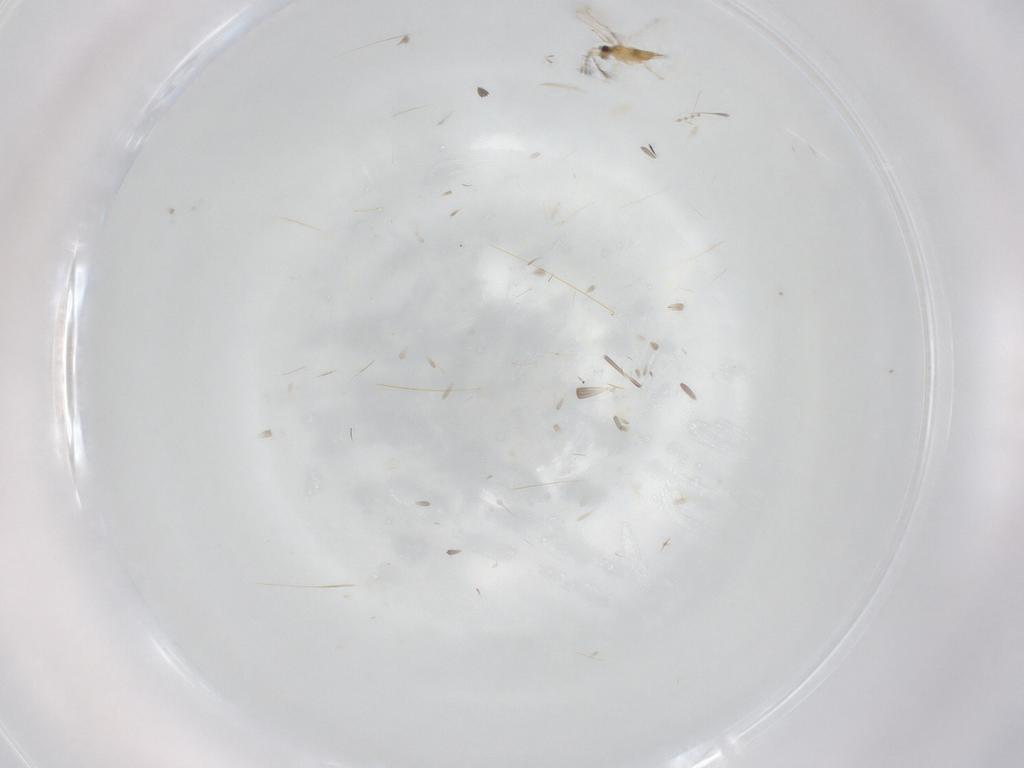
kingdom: Animalia
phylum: Arthropoda
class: Insecta
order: Hymenoptera
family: Mymaridae
